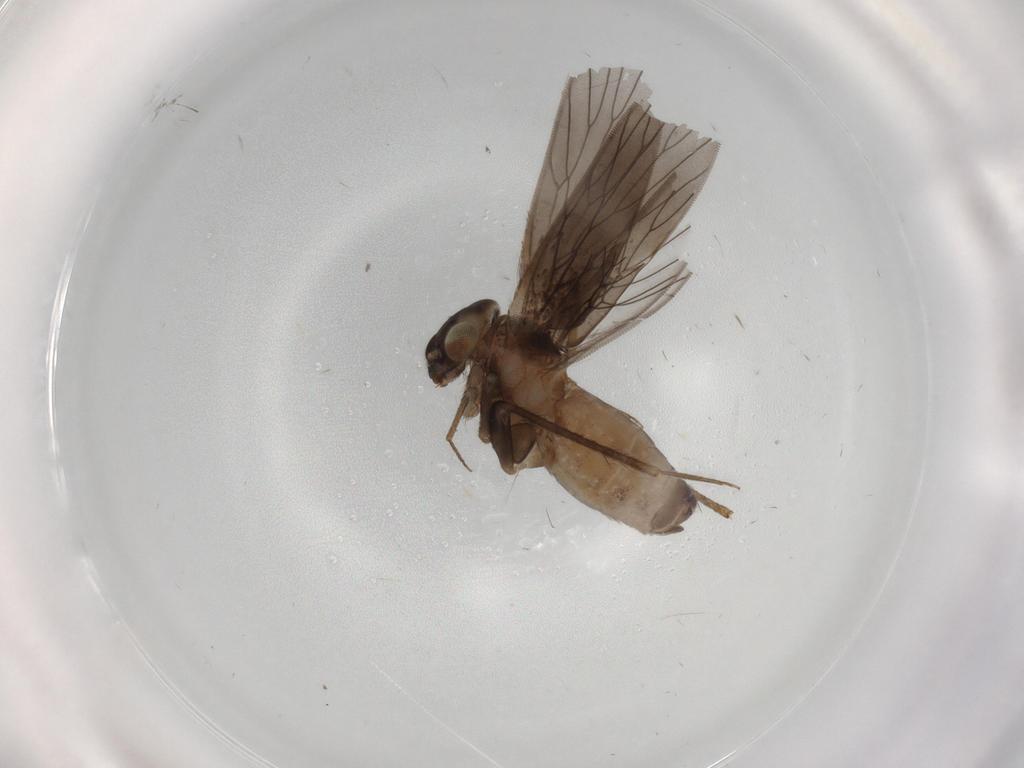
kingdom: Animalia
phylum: Arthropoda
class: Insecta
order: Psocodea
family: Lepidopsocidae
